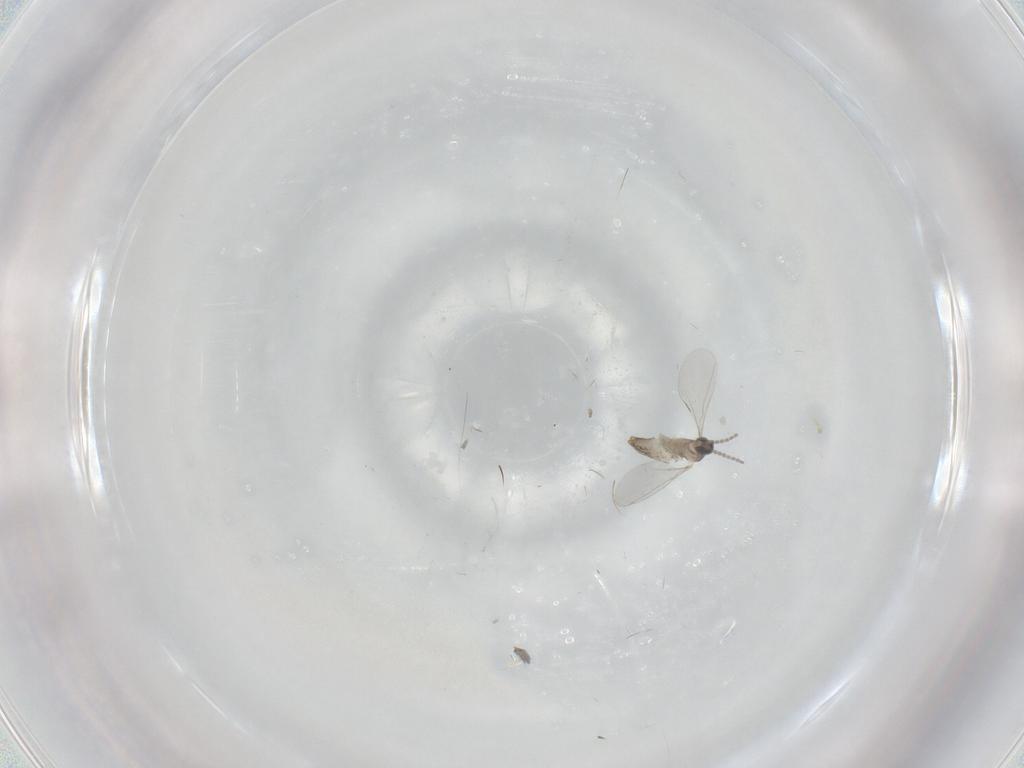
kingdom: Animalia
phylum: Arthropoda
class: Insecta
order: Diptera
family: Cecidomyiidae
